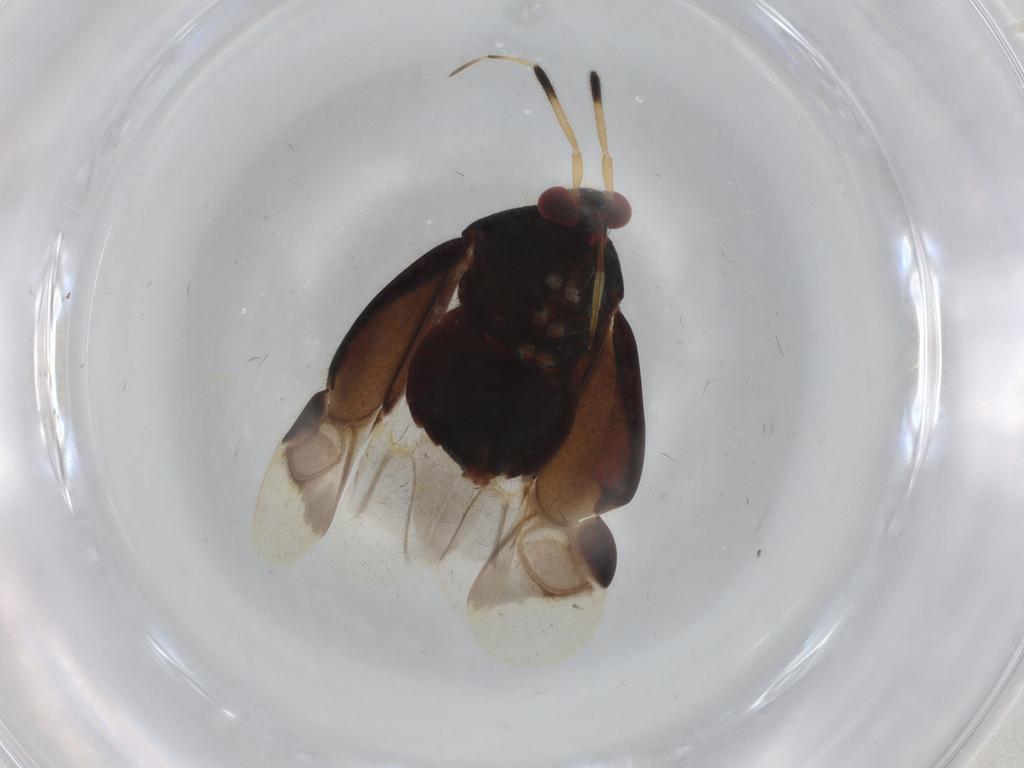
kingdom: Animalia
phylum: Arthropoda
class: Insecta
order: Hemiptera
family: Miridae
